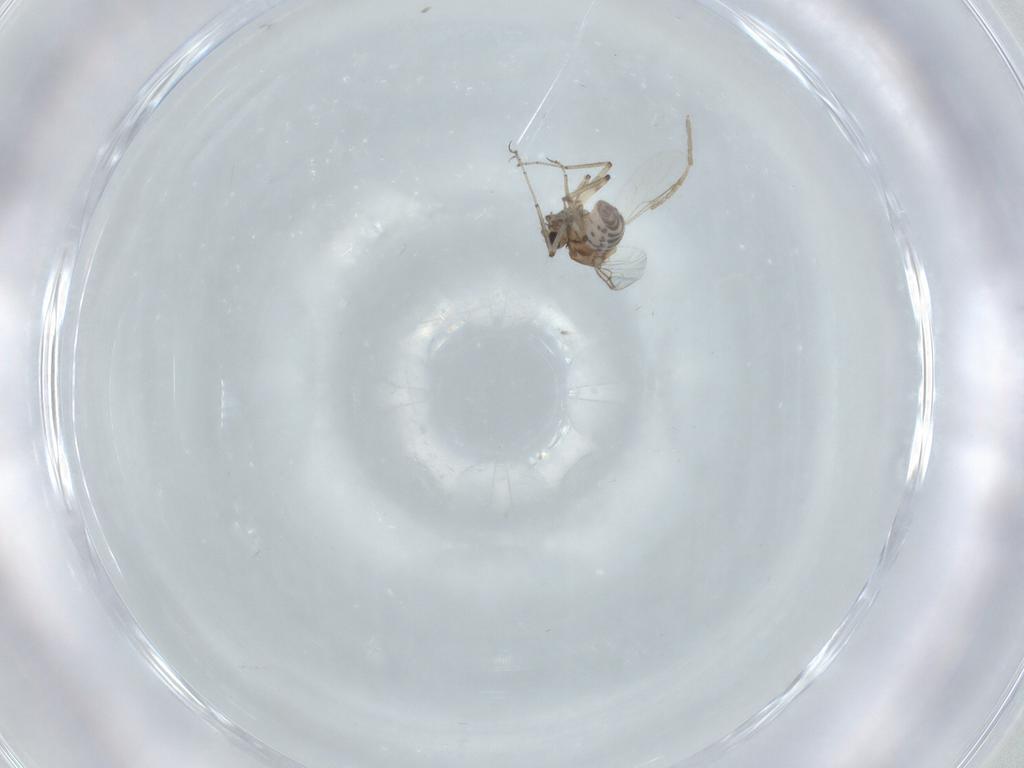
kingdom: Animalia
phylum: Arthropoda
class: Insecta
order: Diptera
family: Ceratopogonidae
